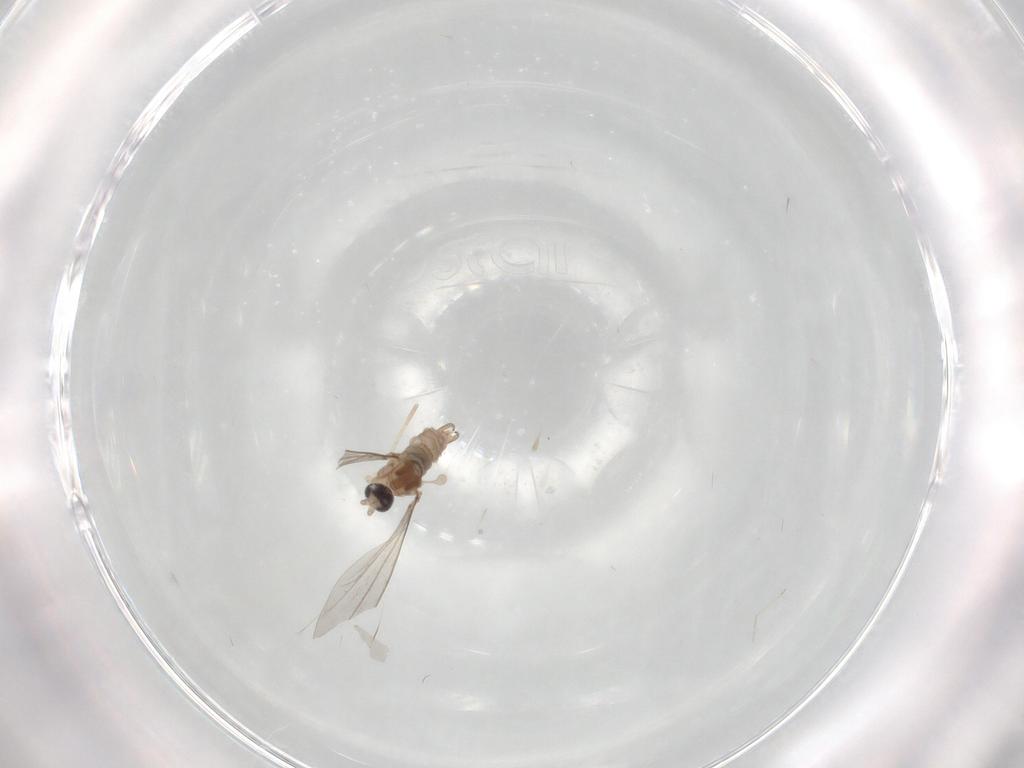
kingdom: Animalia
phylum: Arthropoda
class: Insecta
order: Diptera
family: Cecidomyiidae
